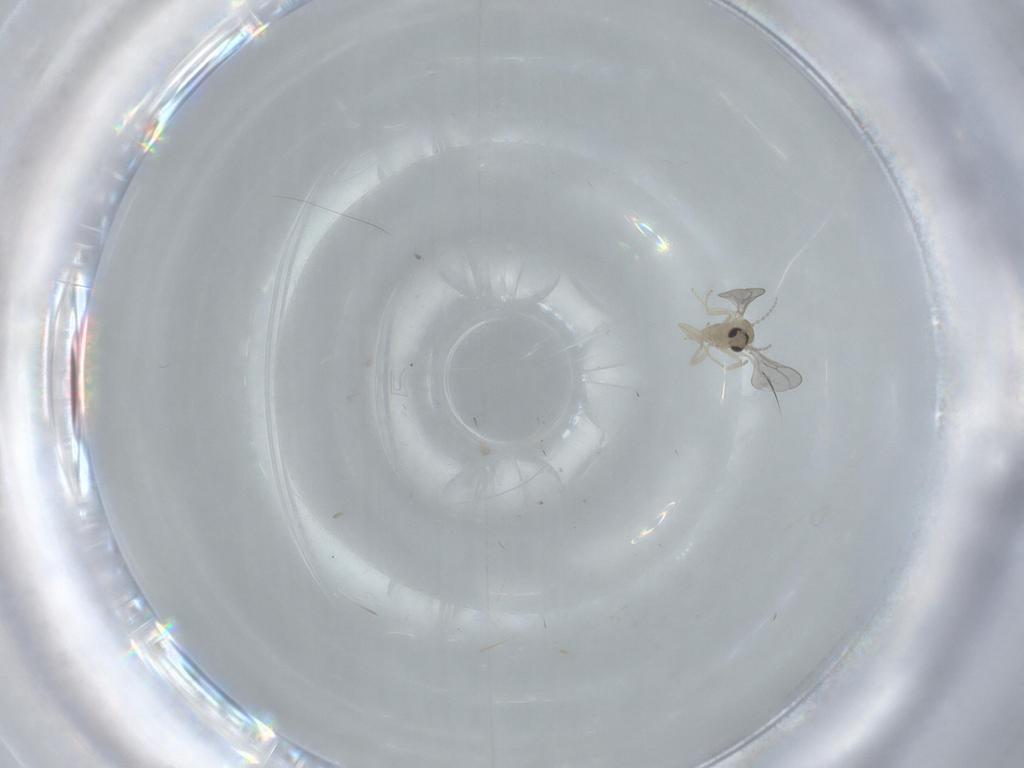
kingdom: Animalia
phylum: Arthropoda
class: Insecta
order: Diptera
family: Cecidomyiidae
